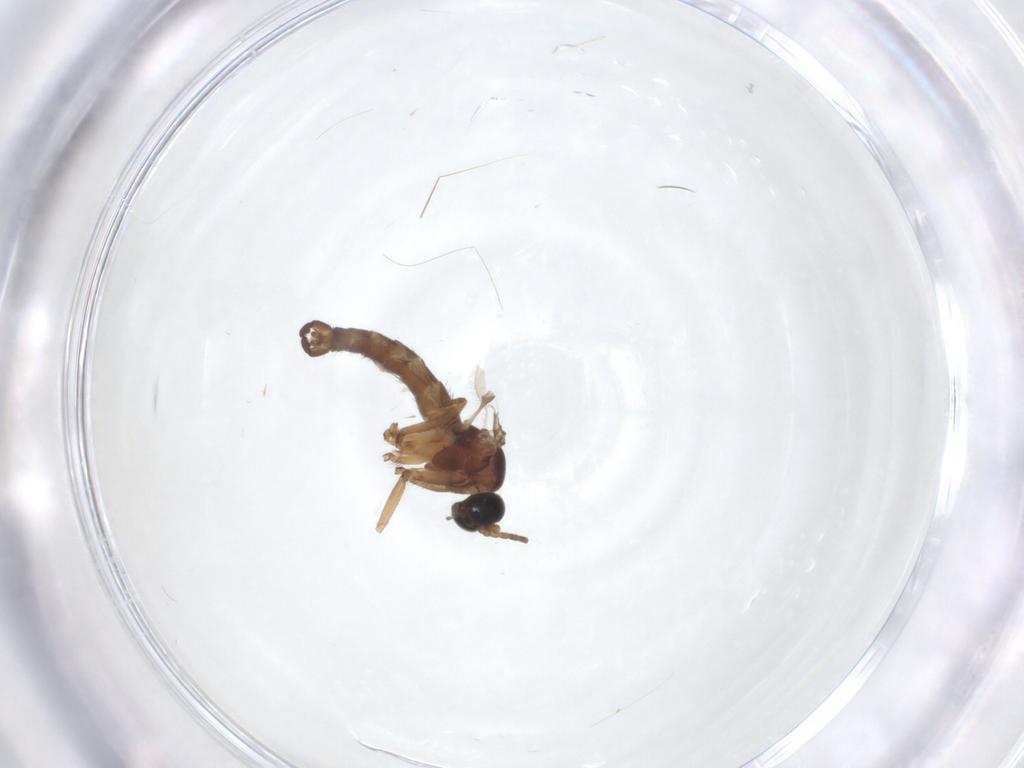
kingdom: Animalia
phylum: Arthropoda
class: Insecta
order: Diptera
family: Sciaridae
